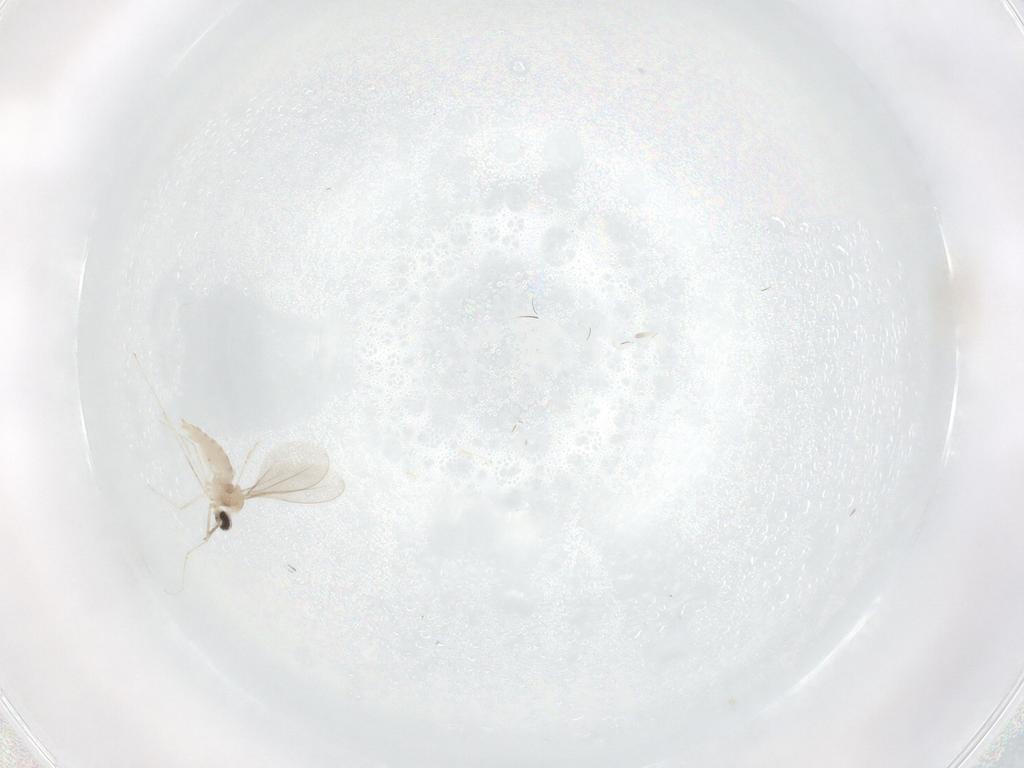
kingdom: Animalia
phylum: Arthropoda
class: Insecta
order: Diptera
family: Cecidomyiidae
